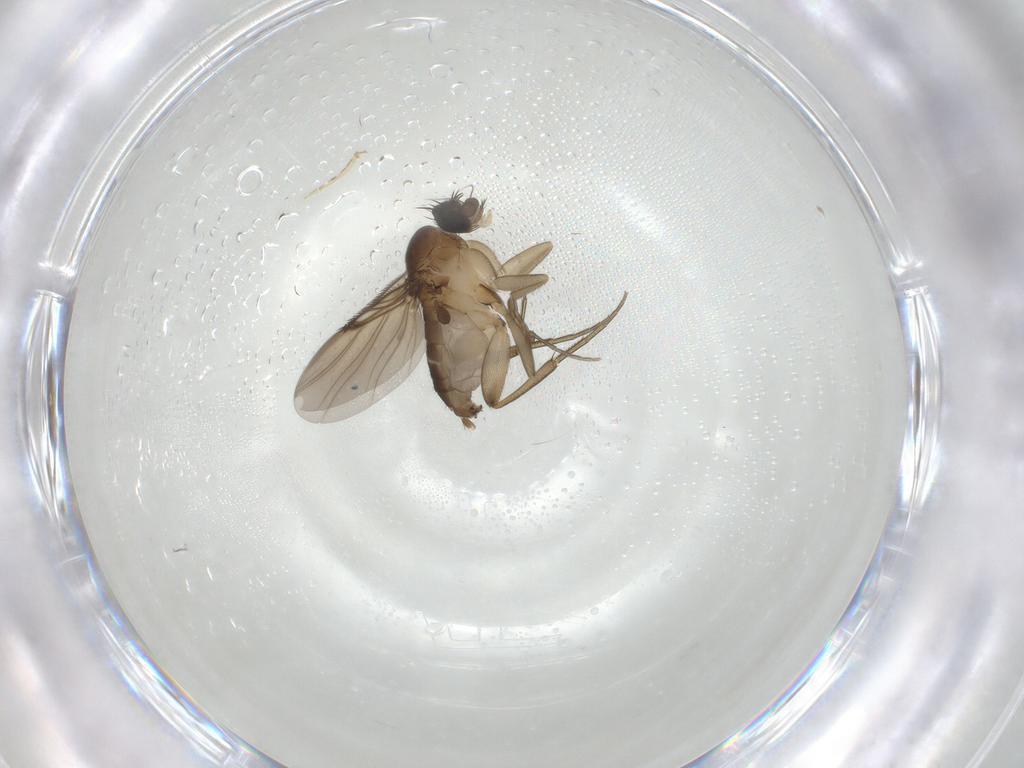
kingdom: Animalia
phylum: Arthropoda
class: Insecta
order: Diptera
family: Phoridae
